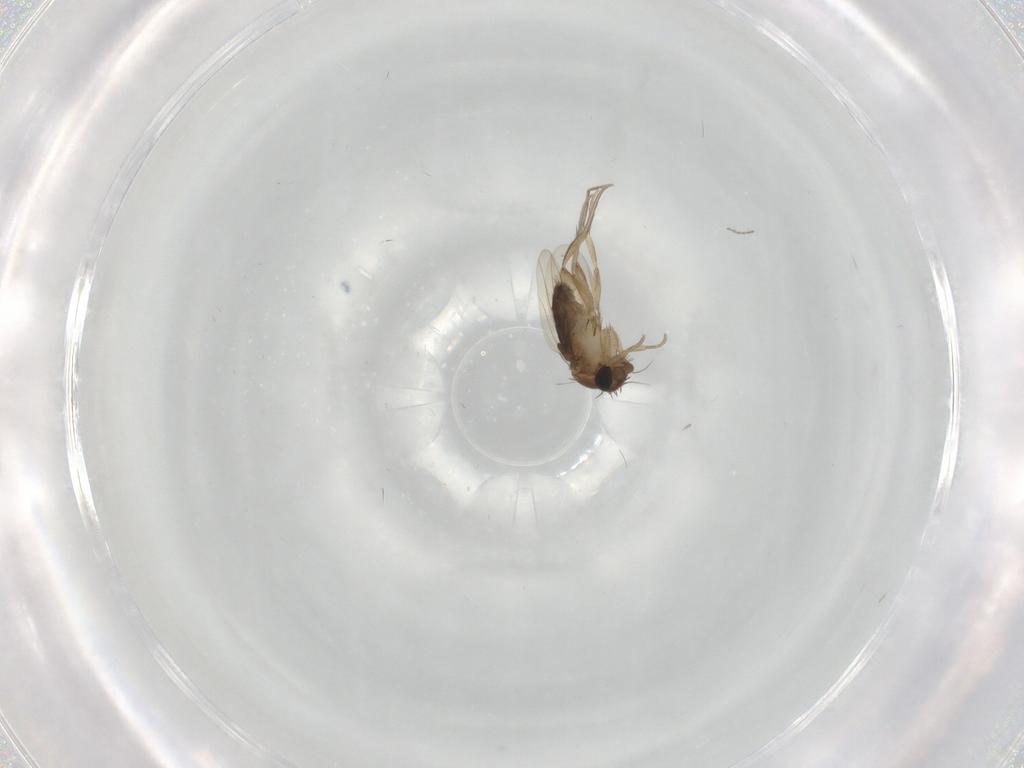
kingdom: Animalia
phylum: Arthropoda
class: Insecta
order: Diptera
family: Phoridae
